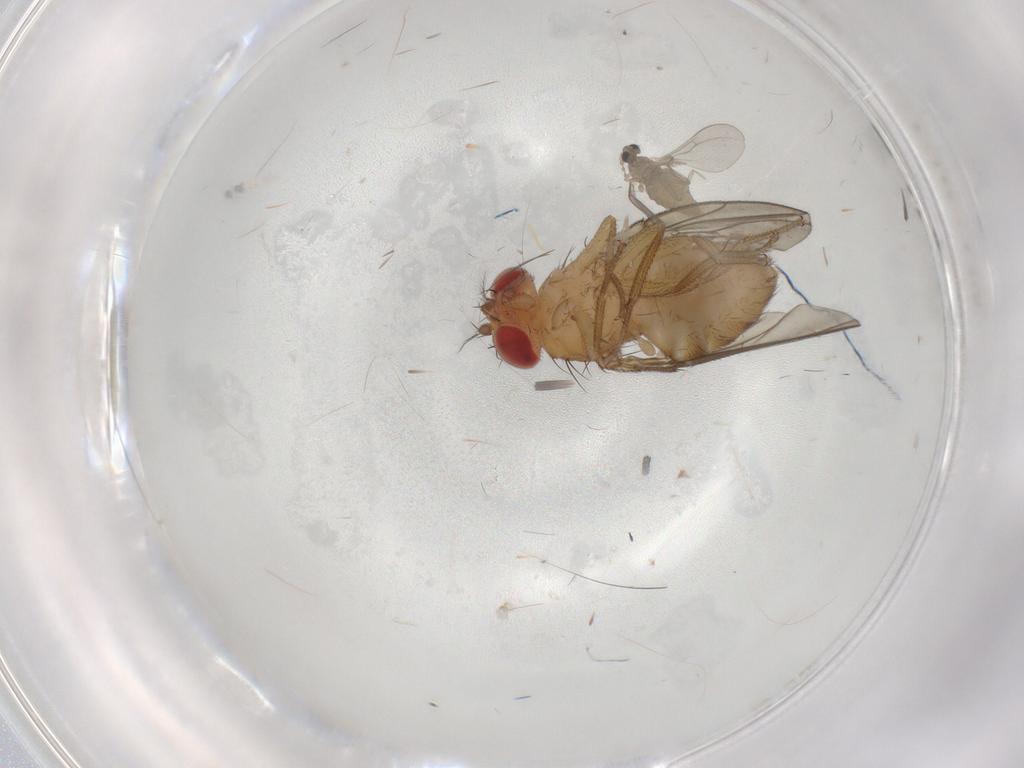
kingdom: Animalia
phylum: Arthropoda
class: Insecta
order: Diptera
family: Drosophilidae
